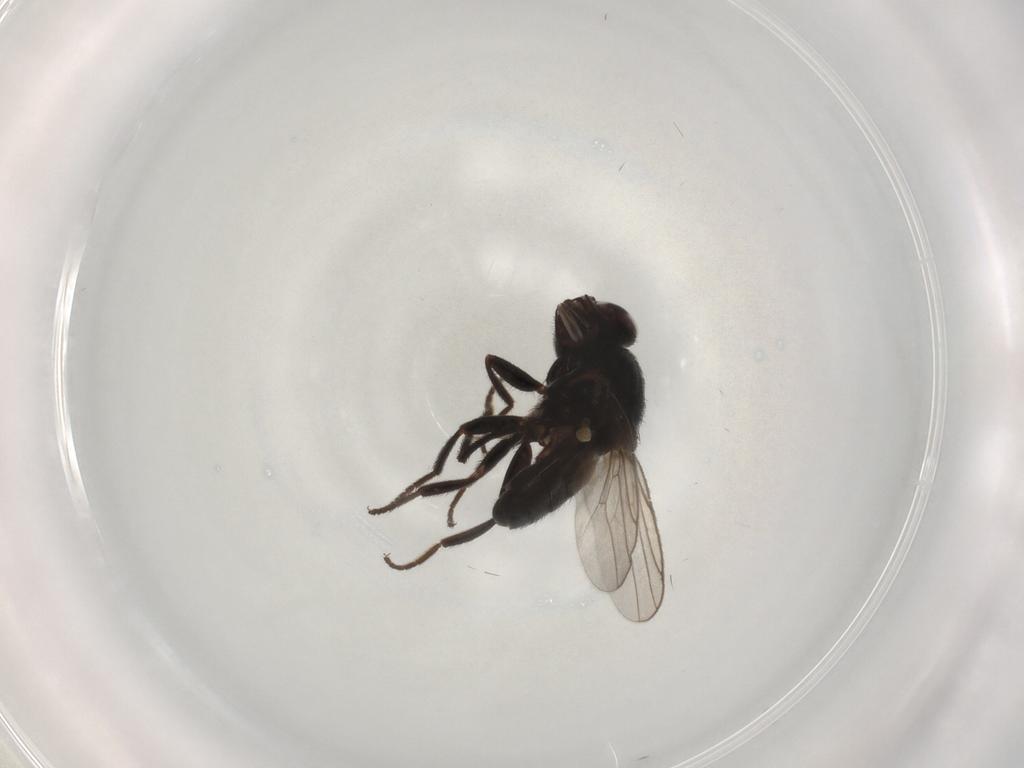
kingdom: Animalia
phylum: Arthropoda
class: Insecta
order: Diptera
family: Chloropidae
